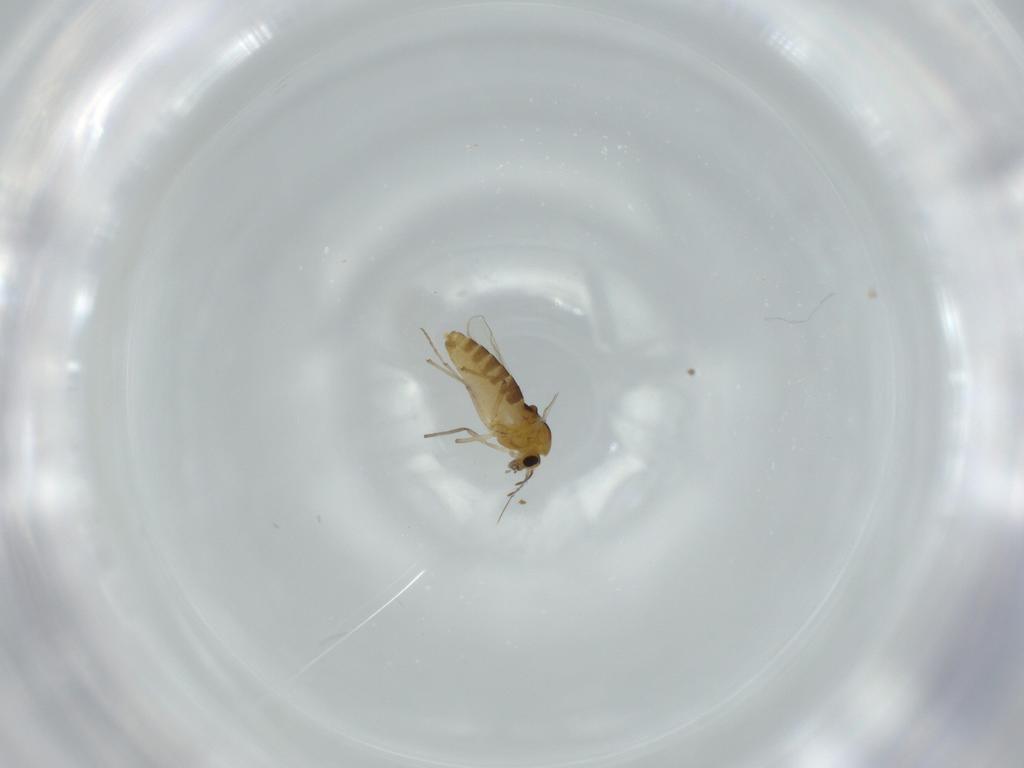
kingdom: Animalia
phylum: Arthropoda
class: Insecta
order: Diptera
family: Chironomidae
